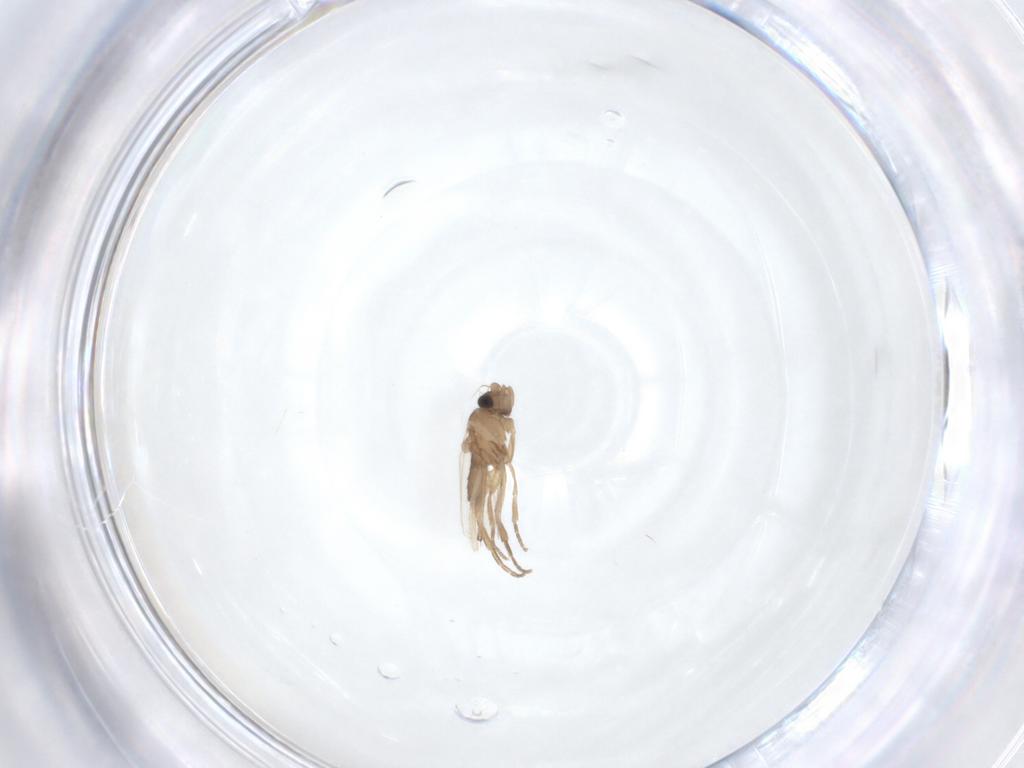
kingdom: Animalia
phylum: Arthropoda
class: Insecta
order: Diptera
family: Phoridae
